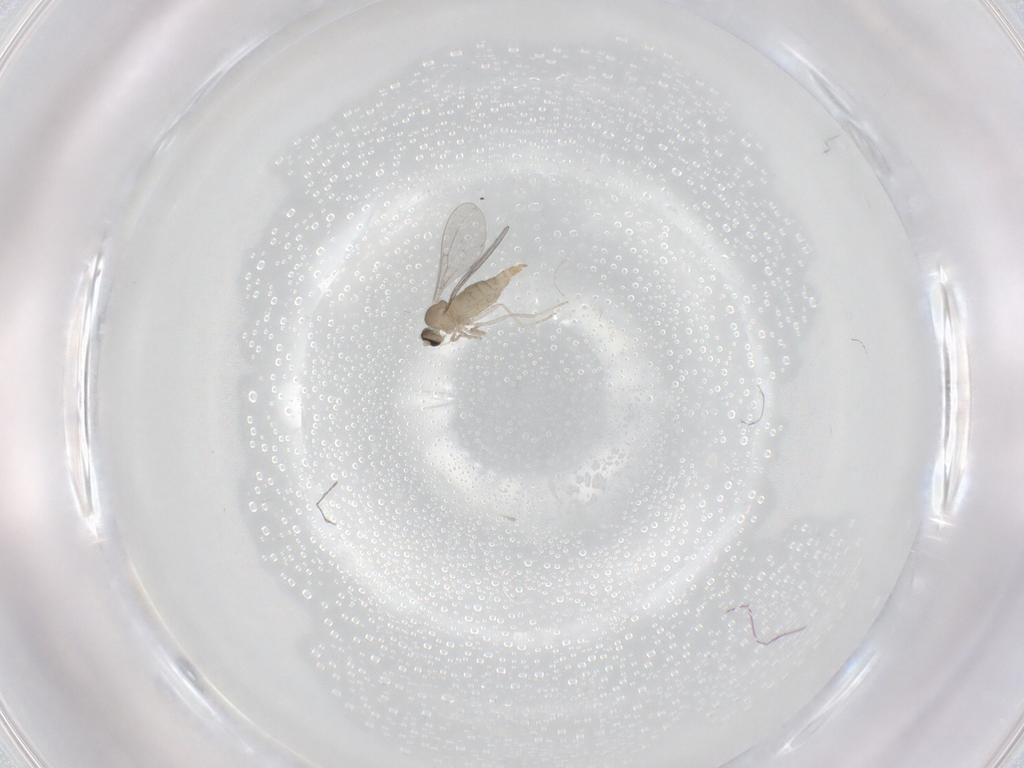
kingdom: Animalia
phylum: Arthropoda
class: Insecta
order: Diptera
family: Cecidomyiidae
